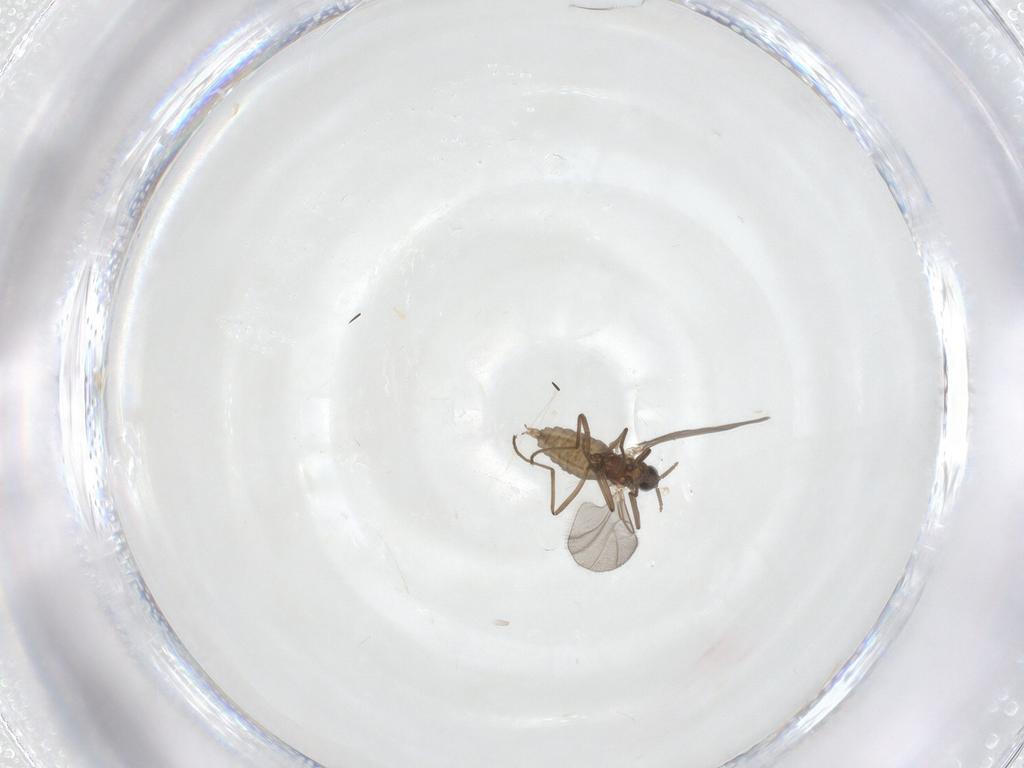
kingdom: Animalia
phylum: Arthropoda
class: Insecta
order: Diptera
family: Cecidomyiidae
